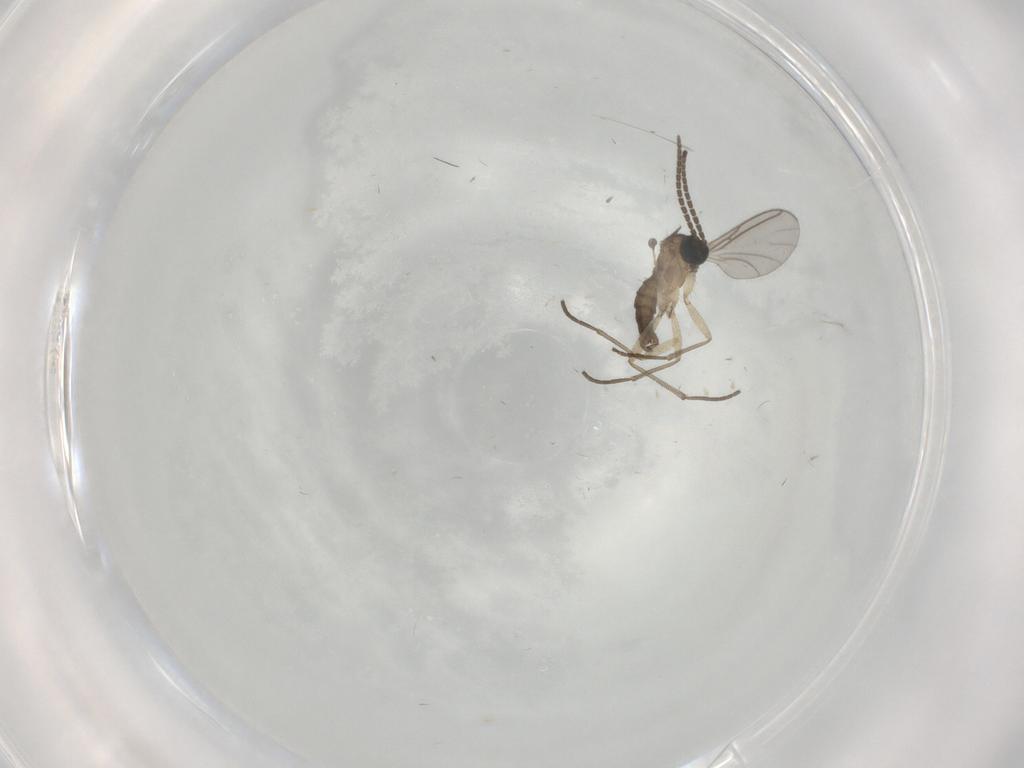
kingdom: Animalia
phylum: Arthropoda
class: Insecta
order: Diptera
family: Sciaridae
